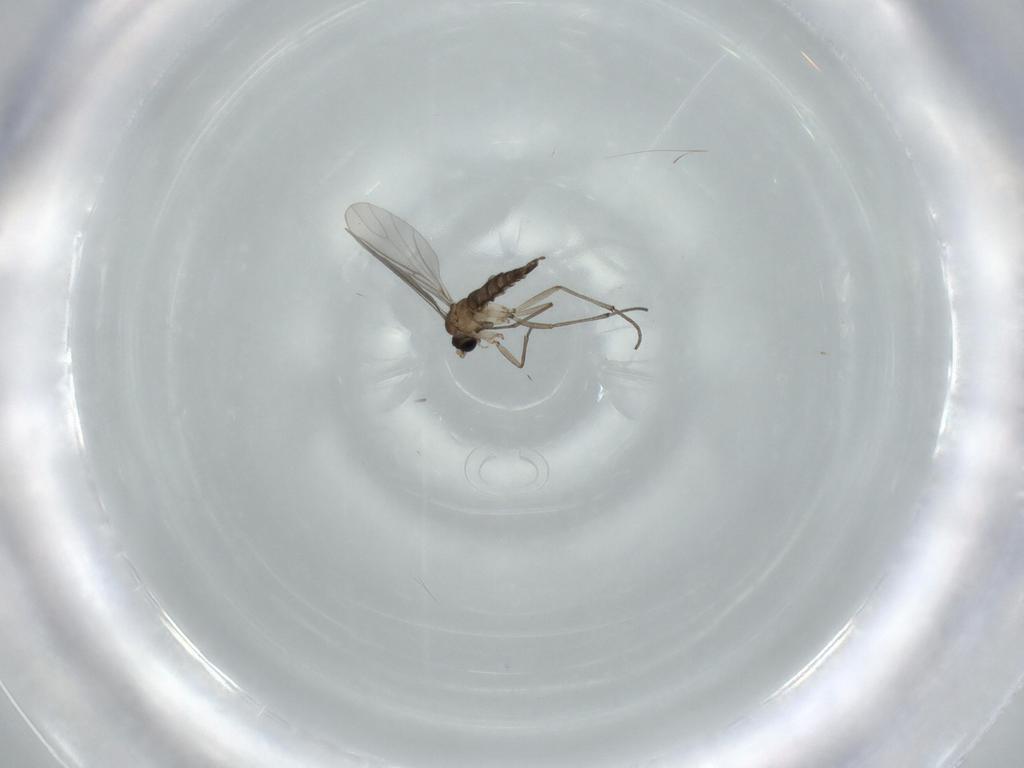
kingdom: Animalia
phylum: Arthropoda
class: Insecta
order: Diptera
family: Sciaridae
